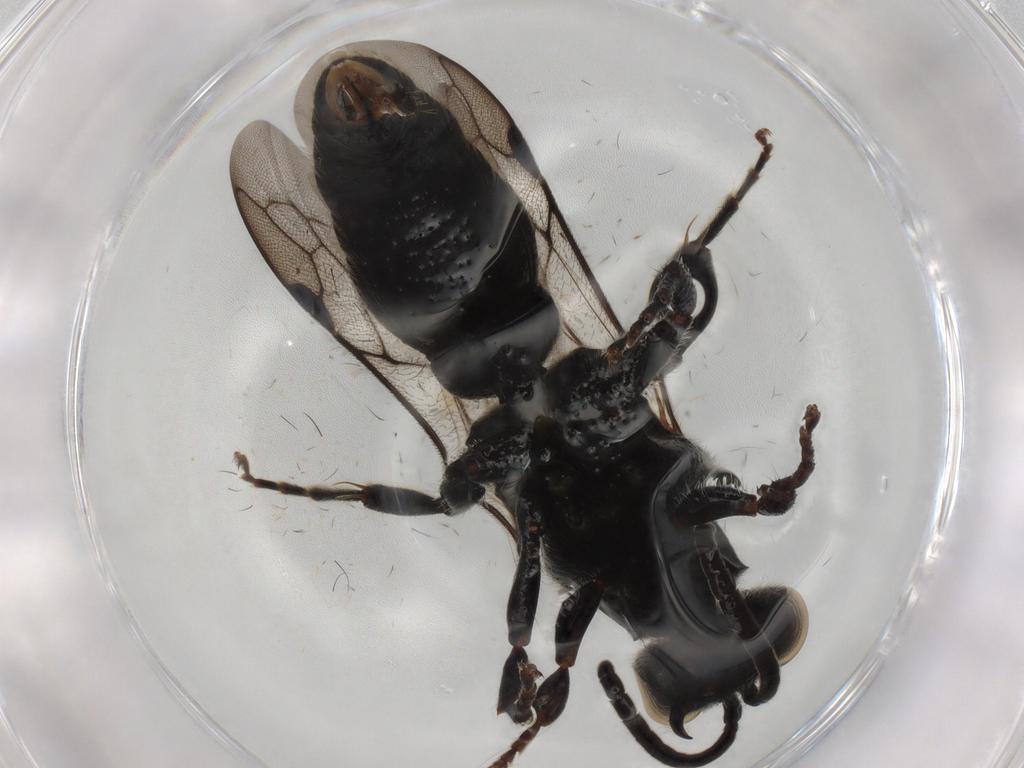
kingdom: Animalia
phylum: Arthropoda
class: Insecta
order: Hymenoptera
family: Tiphiidae
